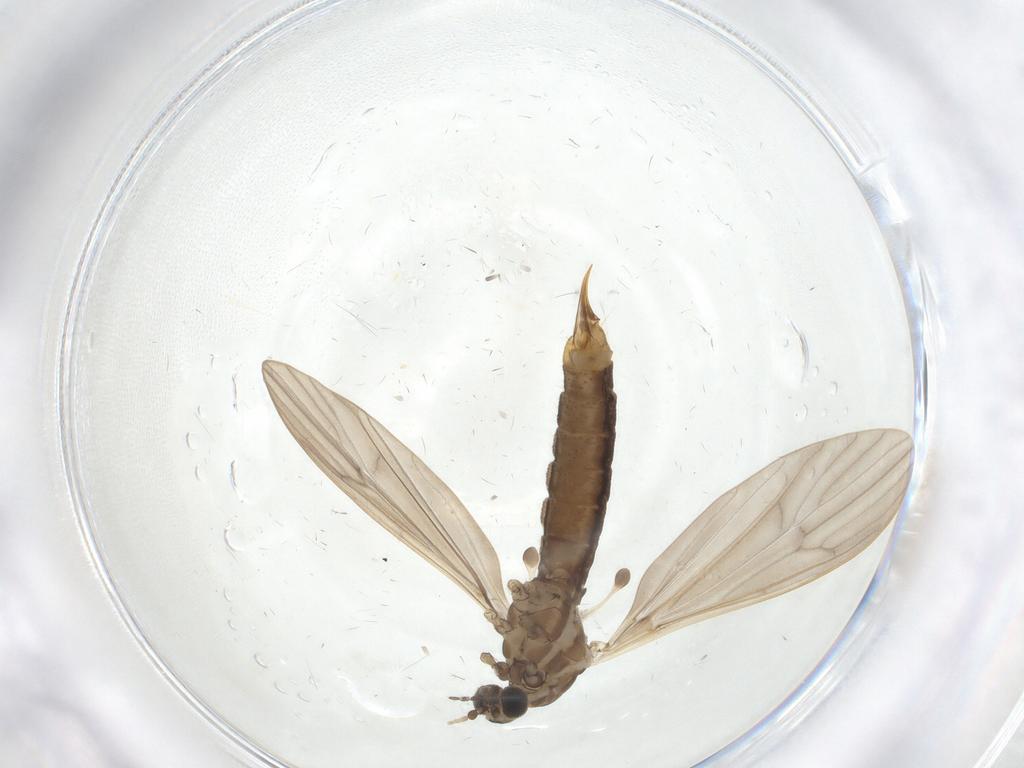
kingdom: Animalia
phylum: Arthropoda
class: Insecta
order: Diptera
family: Limoniidae
